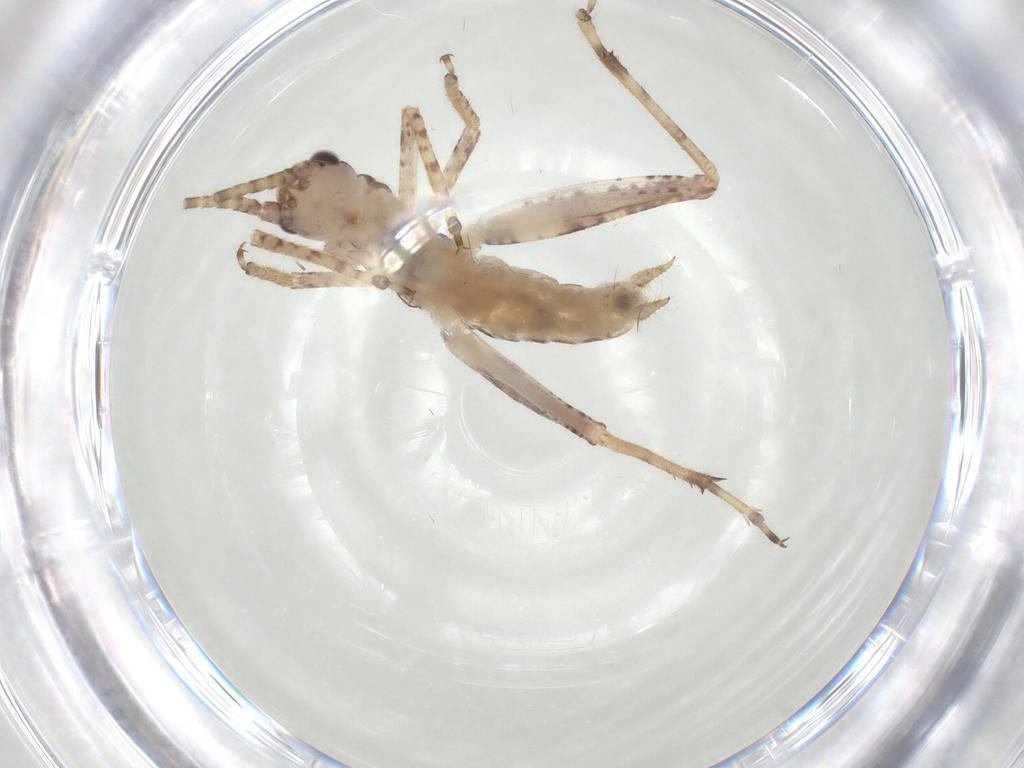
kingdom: Animalia
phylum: Arthropoda
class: Insecta
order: Orthoptera
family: Gryllidae
